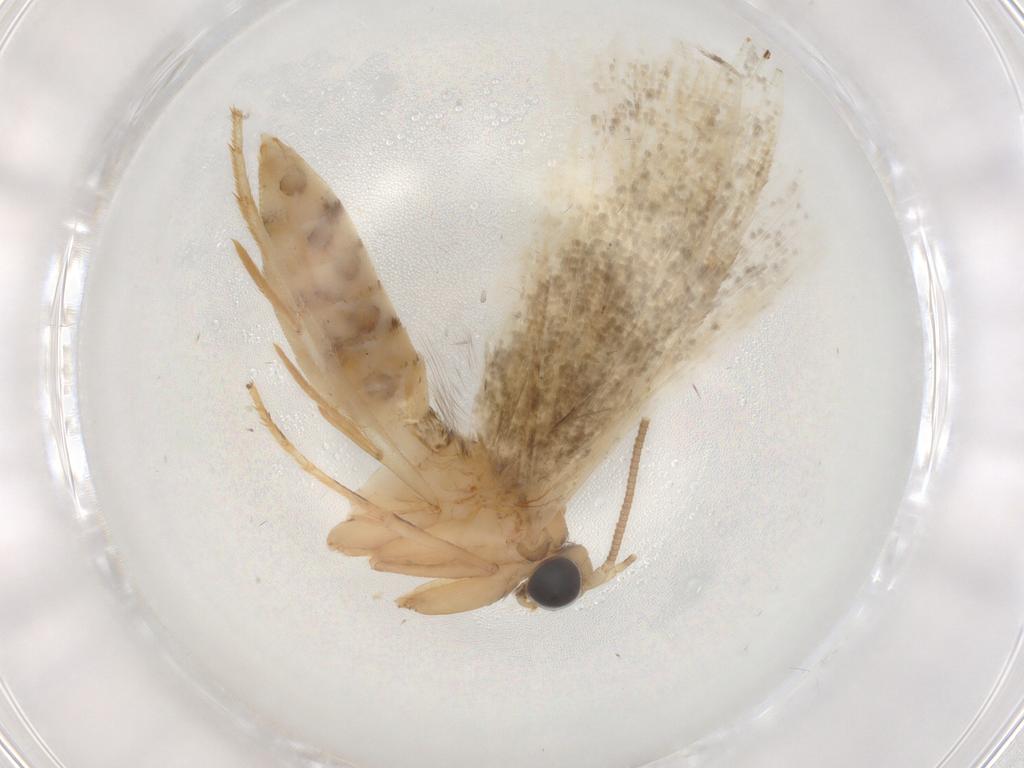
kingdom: Animalia
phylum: Arthropoda
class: Insecta
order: Lepidoptera
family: Tineidae
